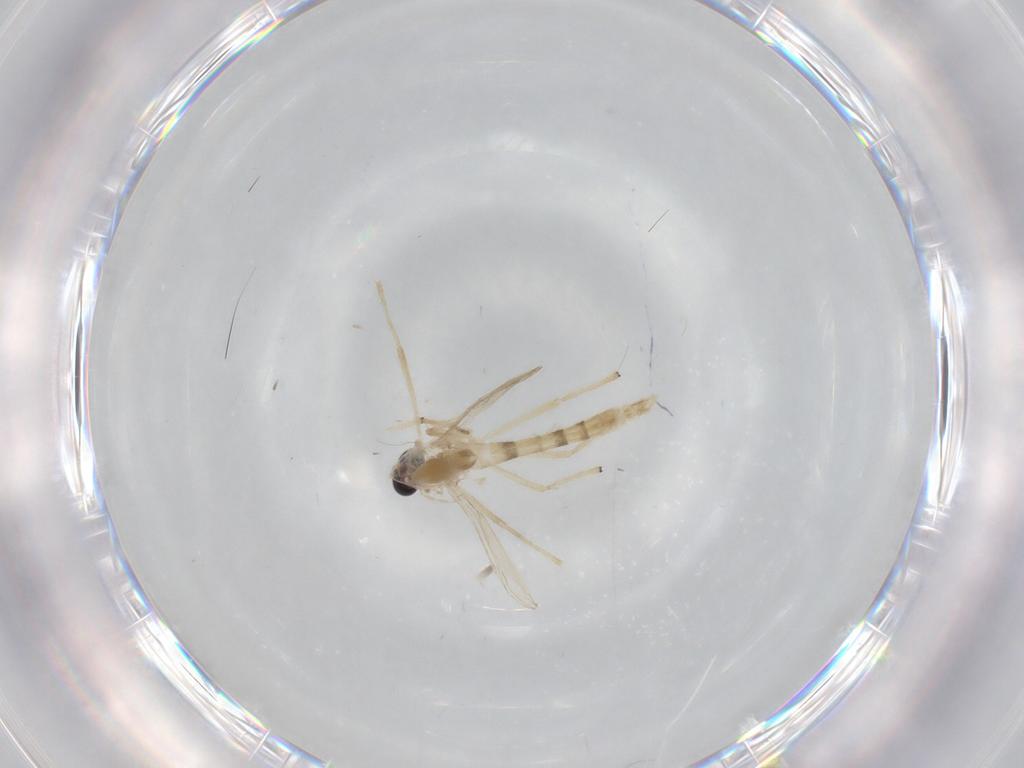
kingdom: Animalia
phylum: Arthropoda
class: Insecta
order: Diptera
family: Chironomidae
